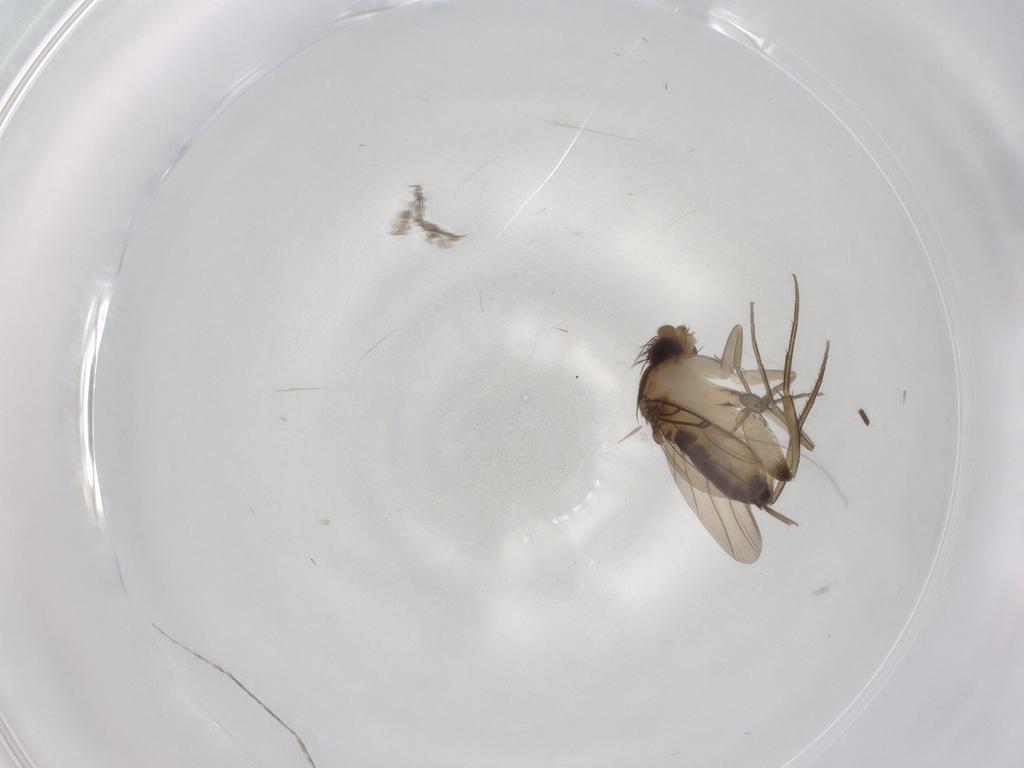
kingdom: Animalia
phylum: Arthropoda
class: Insecta
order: Diptera
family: Phoridae
